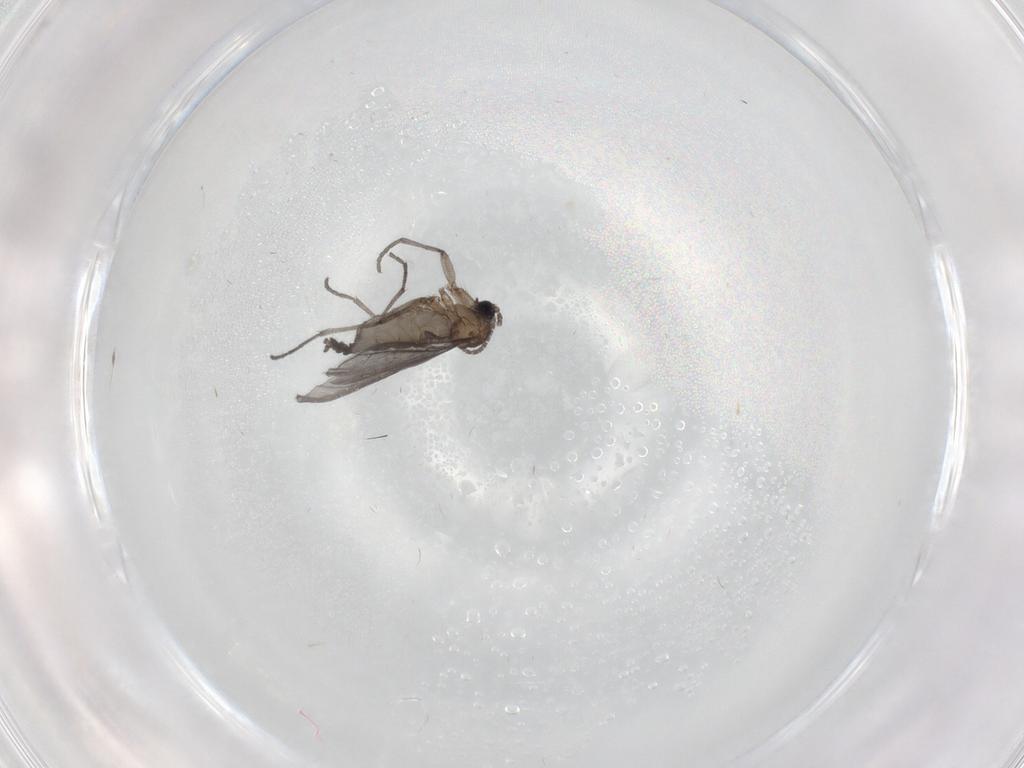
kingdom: Animalia
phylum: Arthropoda
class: Insecta
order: Diptera
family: Sciaridae
